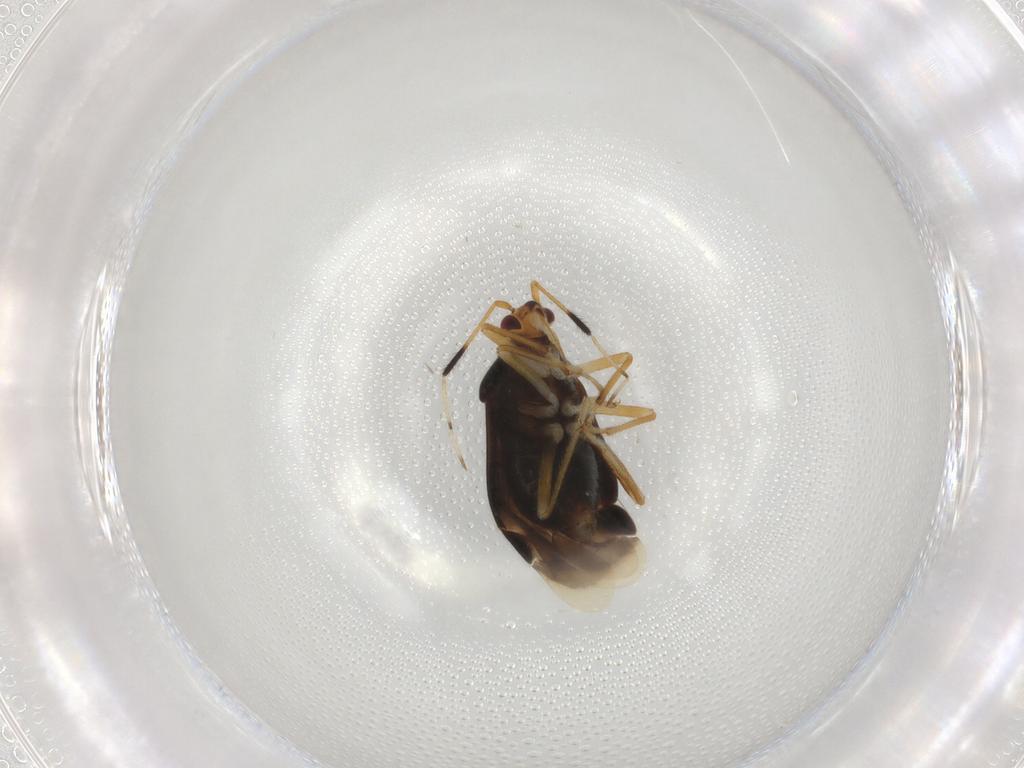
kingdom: Animalia
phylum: Arthropoda
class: Insecta
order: Hemiptera
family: Miridae
